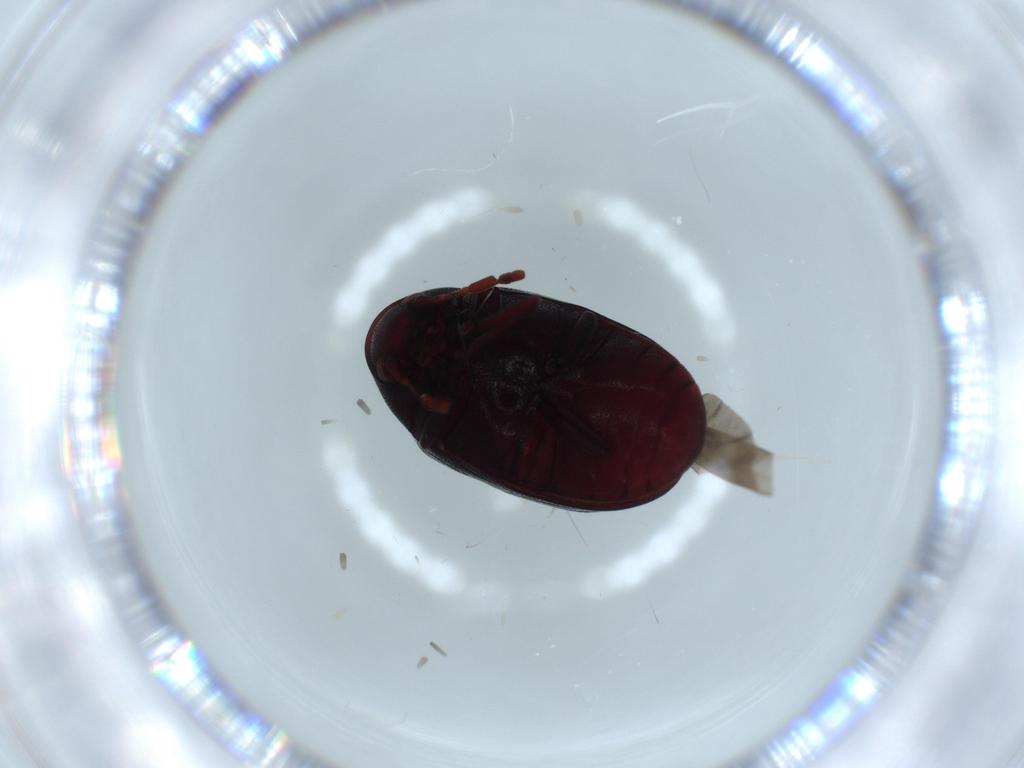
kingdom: Animalia
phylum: Arthropoda
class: Insecta
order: Coleoptera
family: Ptinidae
